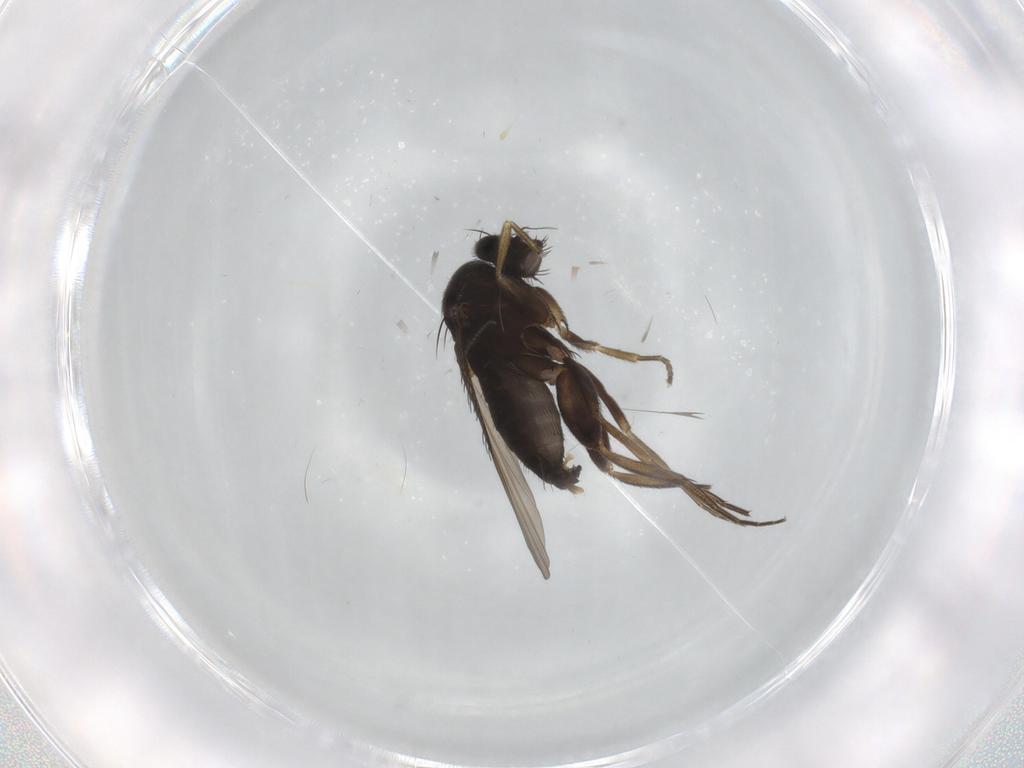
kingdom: Animalia
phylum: Arthropoda
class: Insecta
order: Diptera
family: Phoridae
